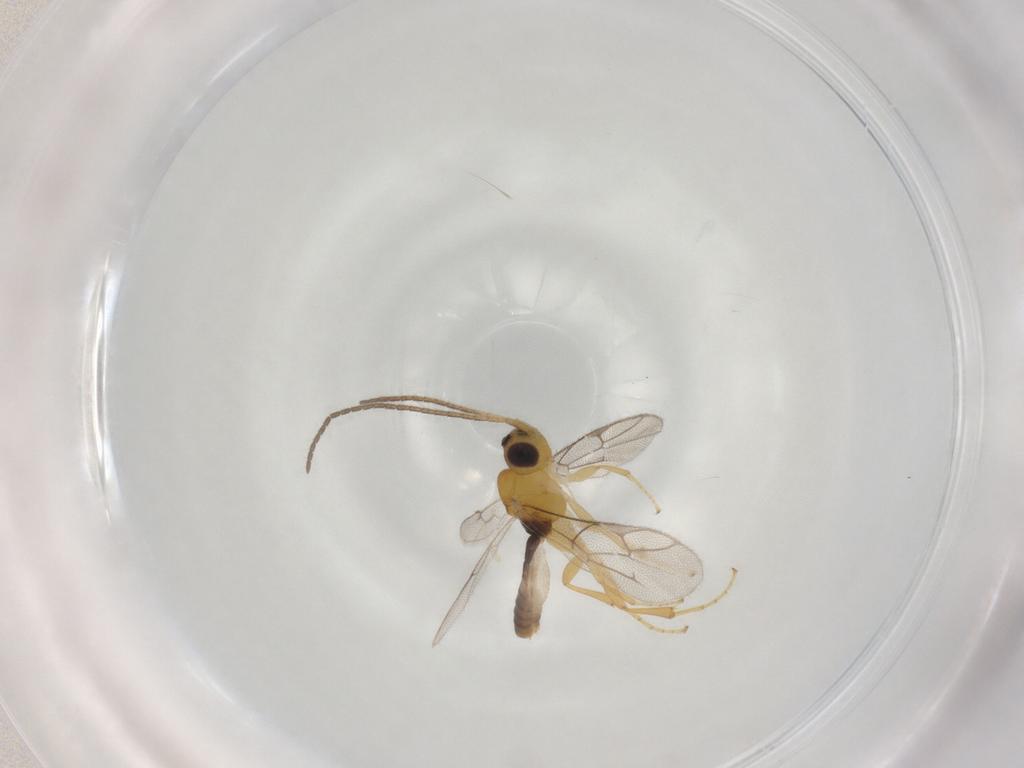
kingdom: Animalia
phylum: Arthropoda
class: Insecta
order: Hymenoptera
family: Ichneumonidae
